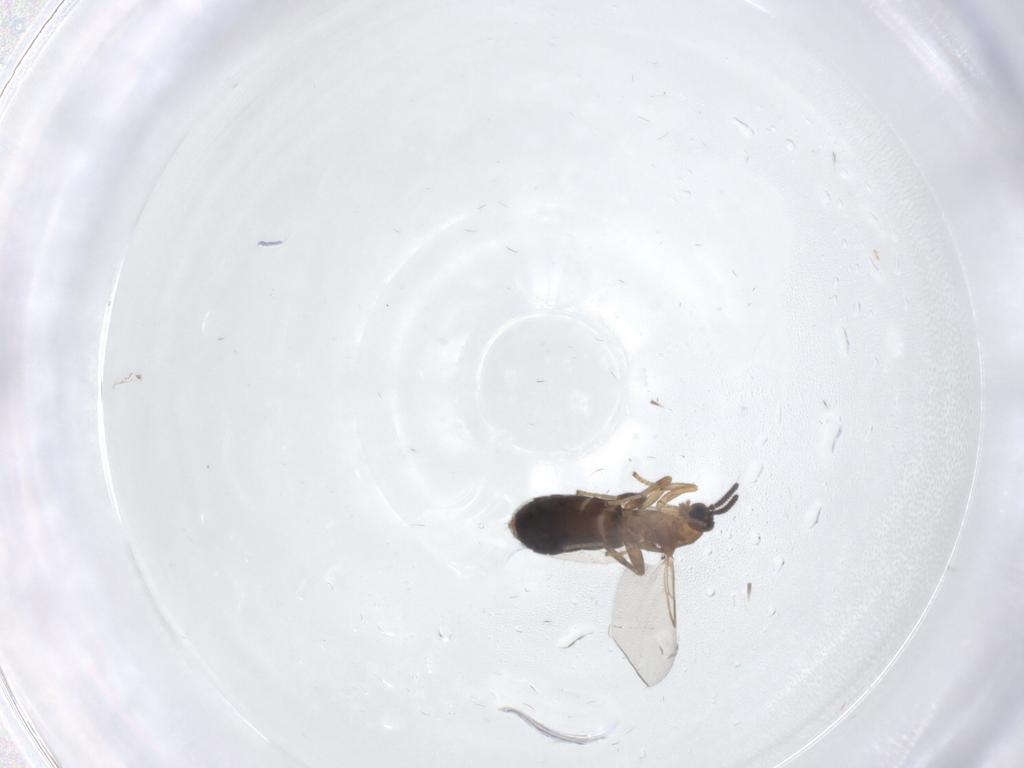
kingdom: Animalia
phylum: Arthropoda
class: Insecta
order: Diptera
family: Scatopsidae
